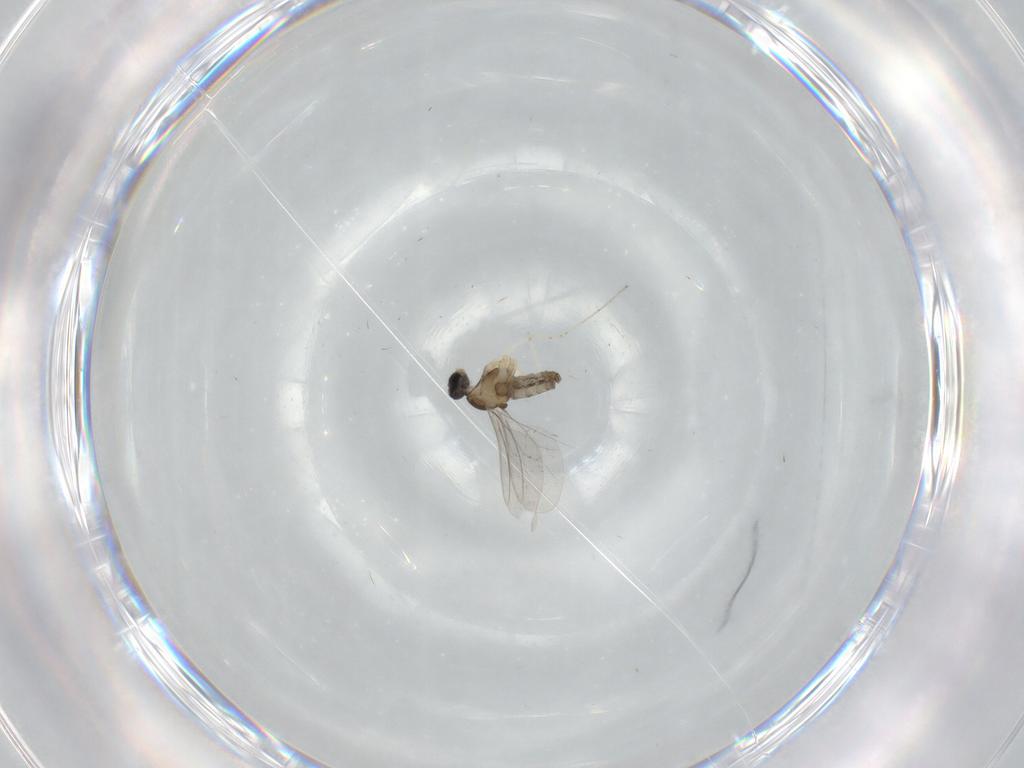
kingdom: Animalia
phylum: Arthropoda
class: Insecta
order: Diptera
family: Cecidomyiidae
